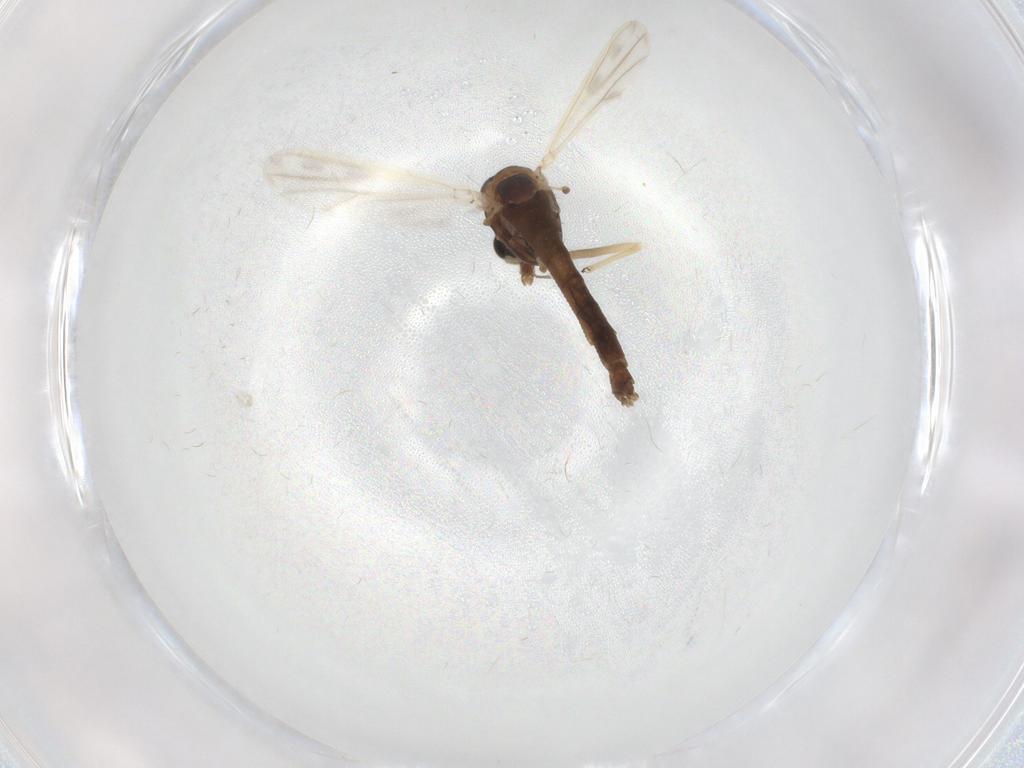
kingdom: Animalia
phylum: Arthropoda
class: Insecta
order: Diptera
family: Chironomidae
